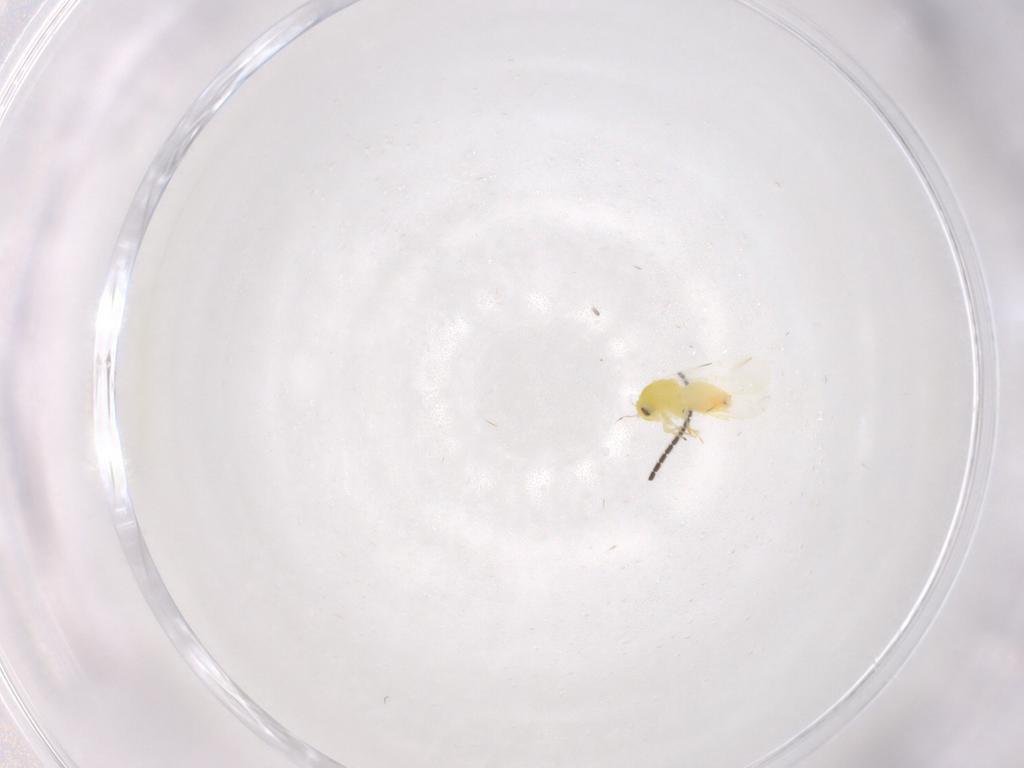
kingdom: Animalia
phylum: Arthropoda
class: Insecta
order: Hemiptera
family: Aleyrodidae
